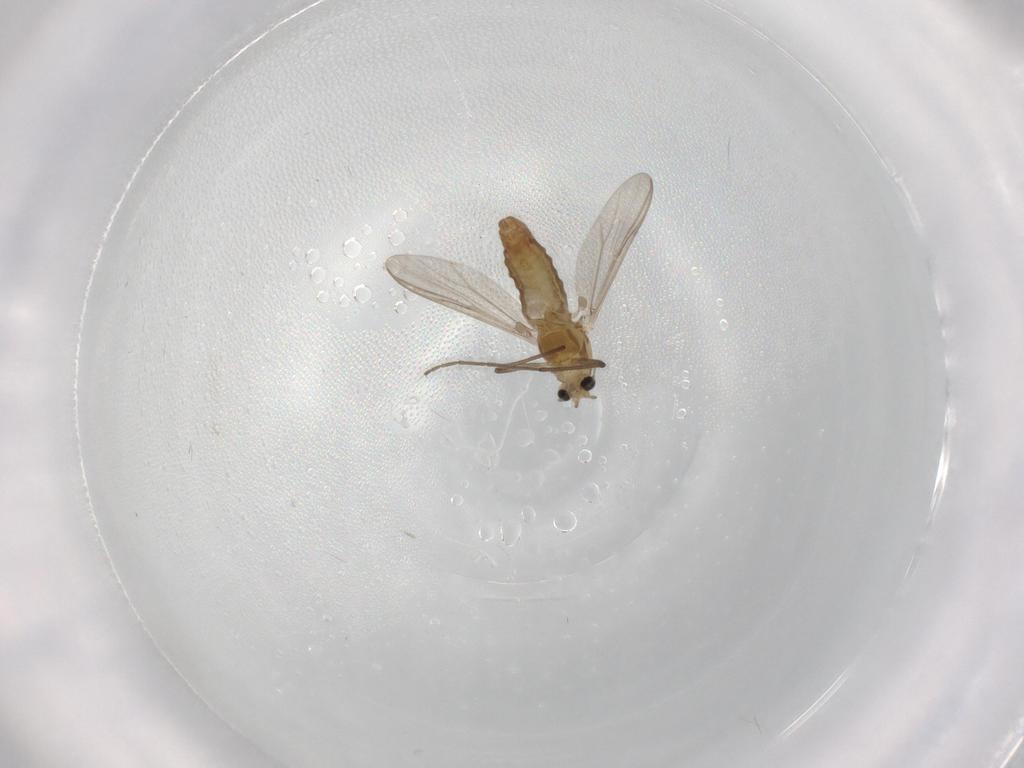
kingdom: Animalia
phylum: Arthropoda
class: Insecta
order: Diptera
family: Chironomidae
